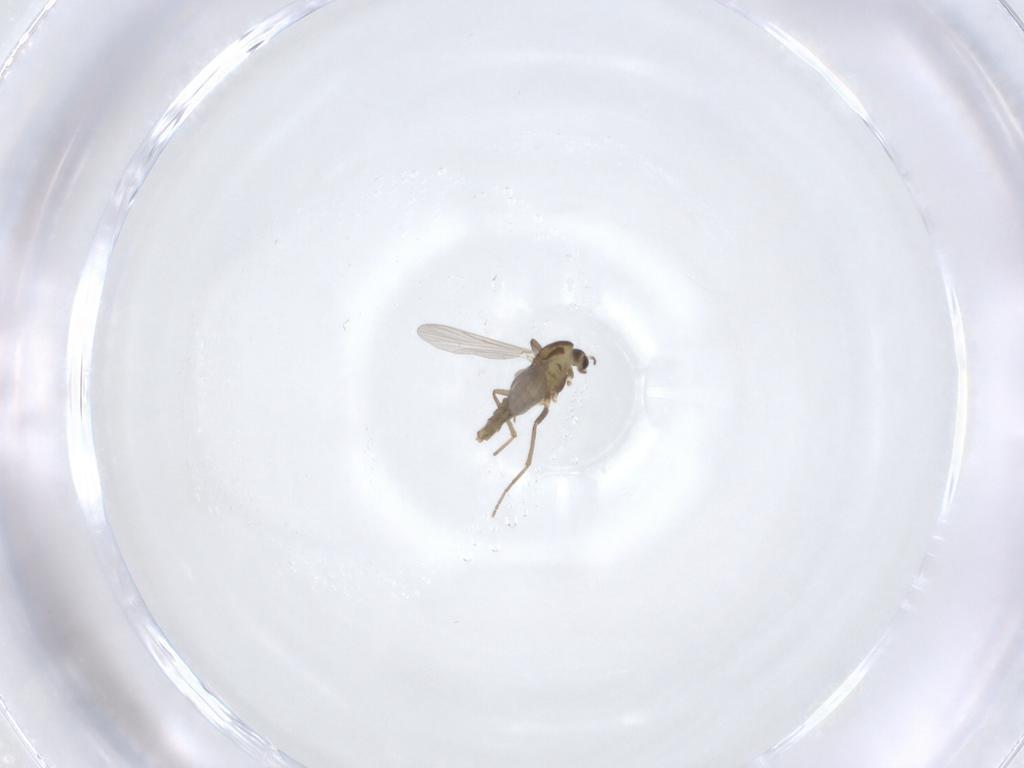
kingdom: Animalia
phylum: Arthropoda
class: Insecta
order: Diptera
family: Chironomidae
